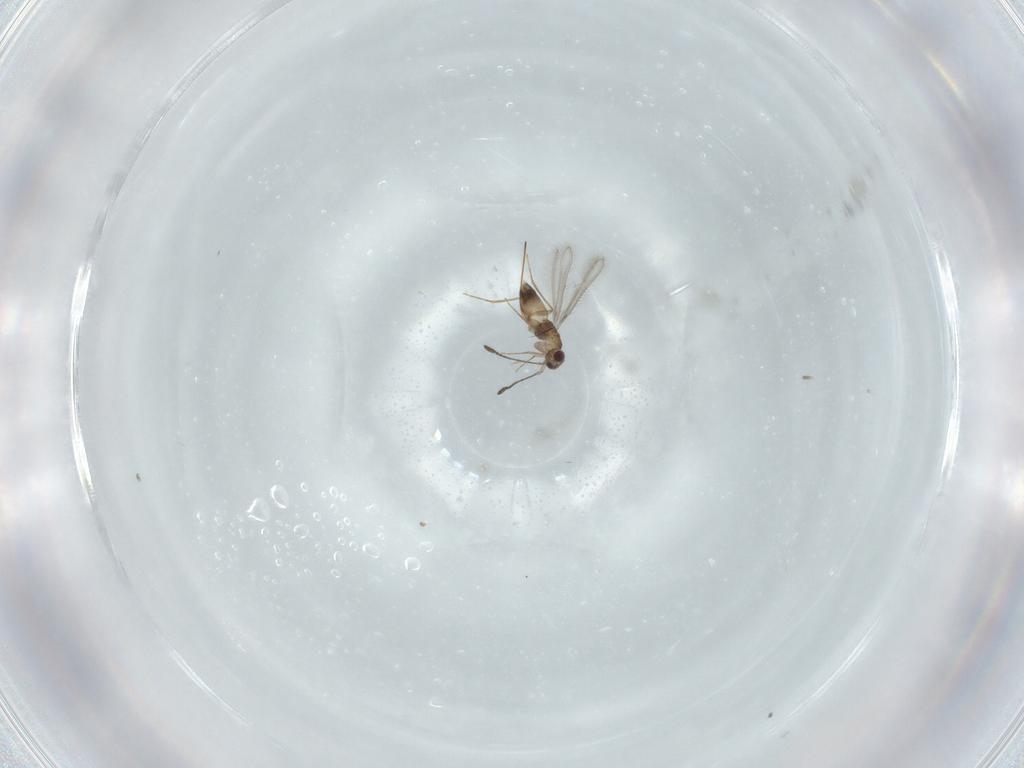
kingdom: Animalia
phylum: Arthropoda
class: Insecta
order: Hymenoptera
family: Mymaridae
